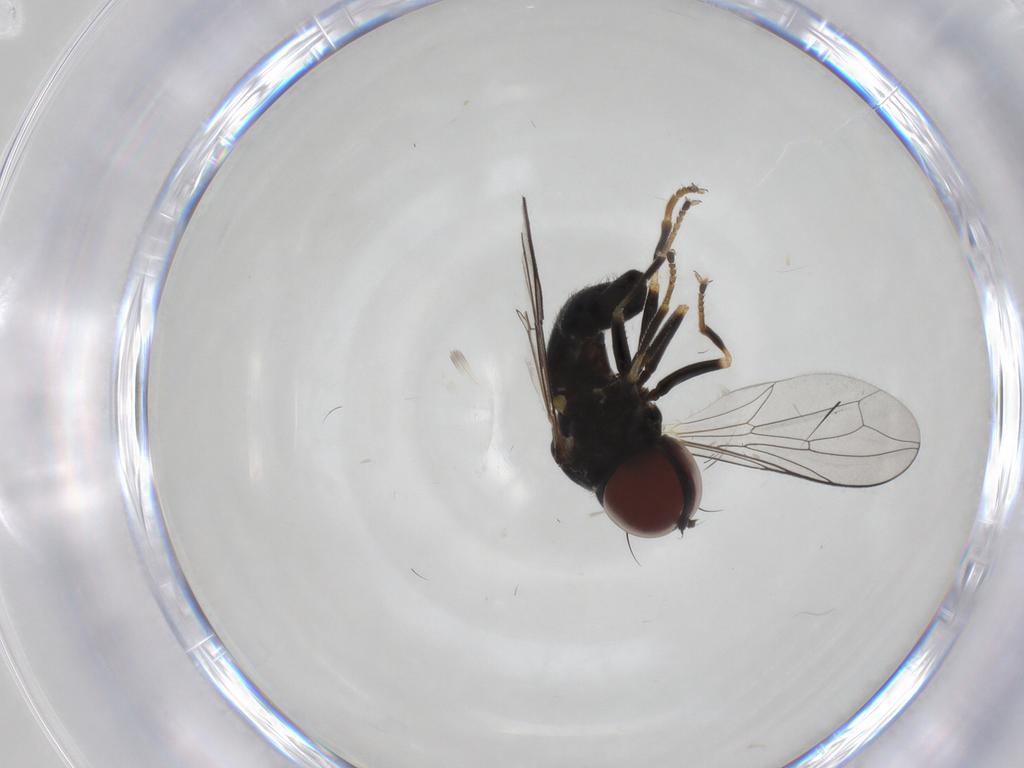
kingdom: Animalia
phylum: Arthropoda
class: Insecta
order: Diptera
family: Pipunculidae
